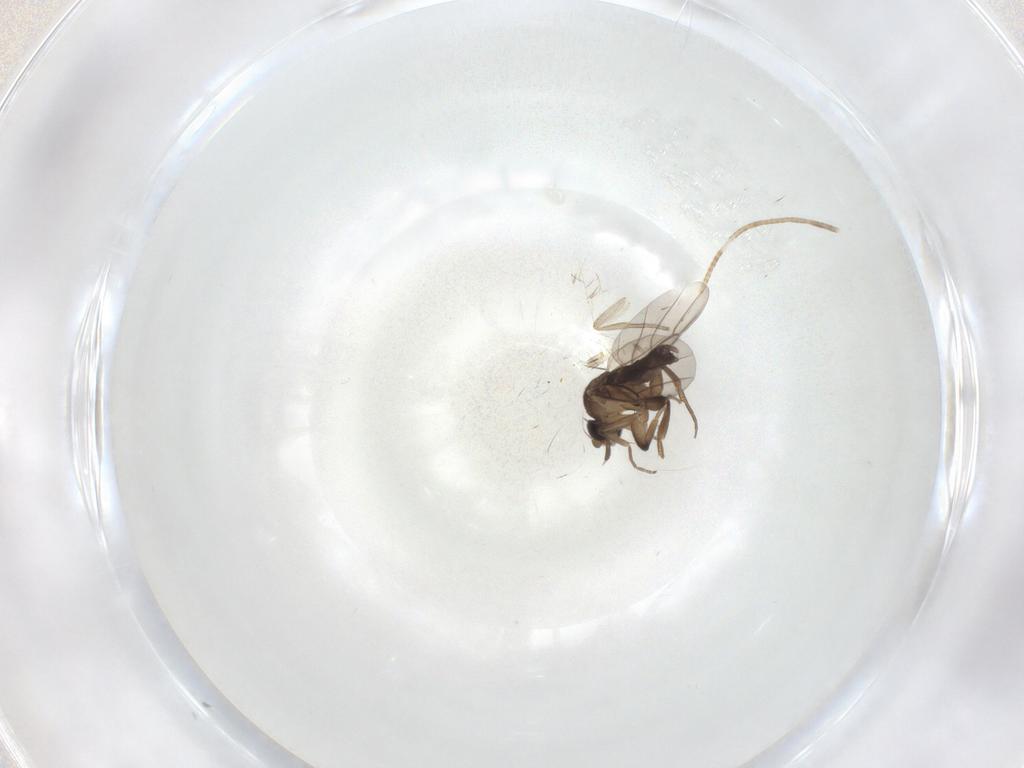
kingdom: Animalia
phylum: Arthropoda
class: Insecta
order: Diptera
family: Phoridae
